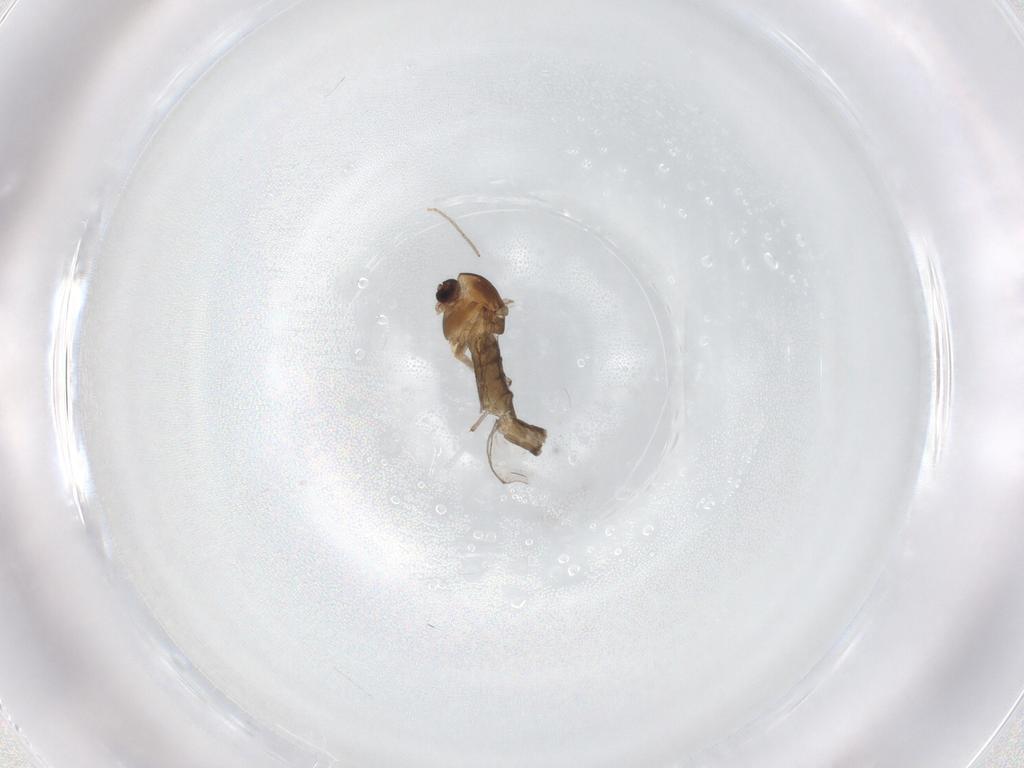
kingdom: Animalia
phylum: Arthropoda
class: Insecta
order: Diptera
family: Chironomidae
